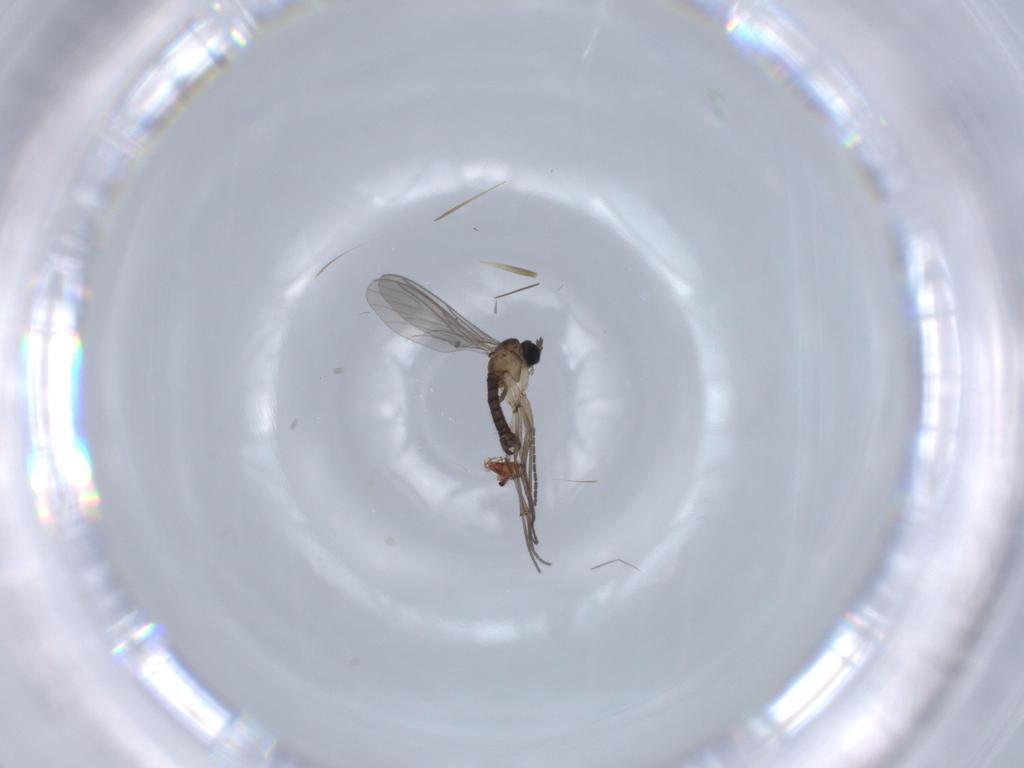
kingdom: Animalia
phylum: Arthropoda
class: Insecta
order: Diptera
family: Sciaridae
